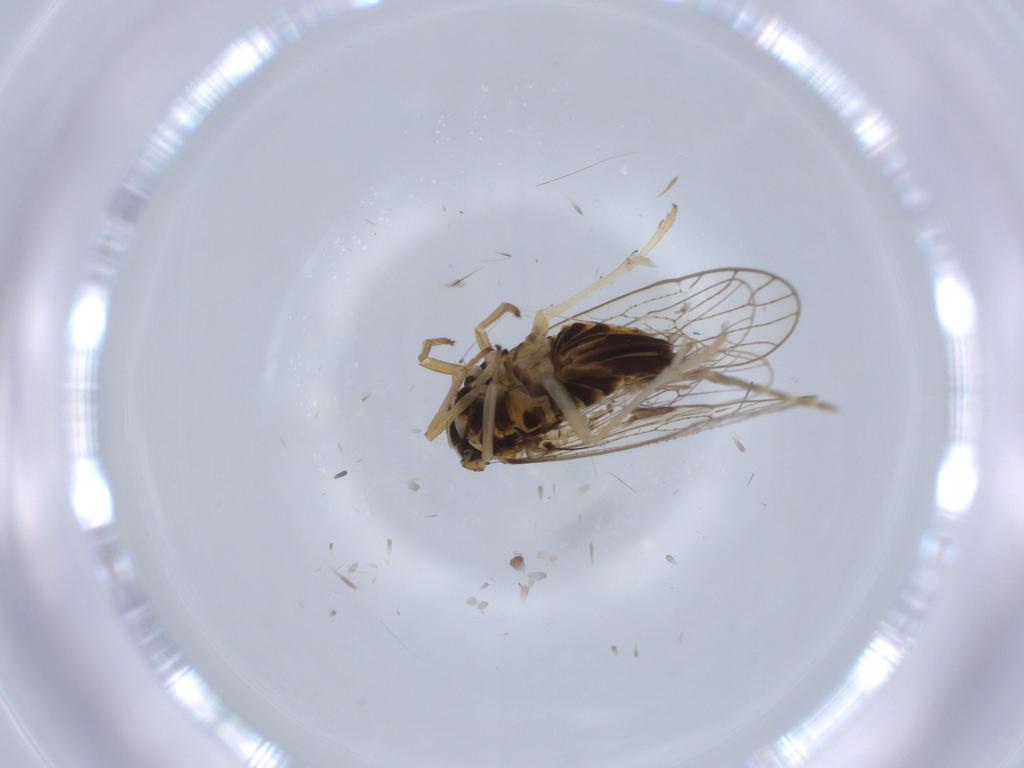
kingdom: Animalia
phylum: Arthropoda
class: Insecta
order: Hemiptera
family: Cercopidae
